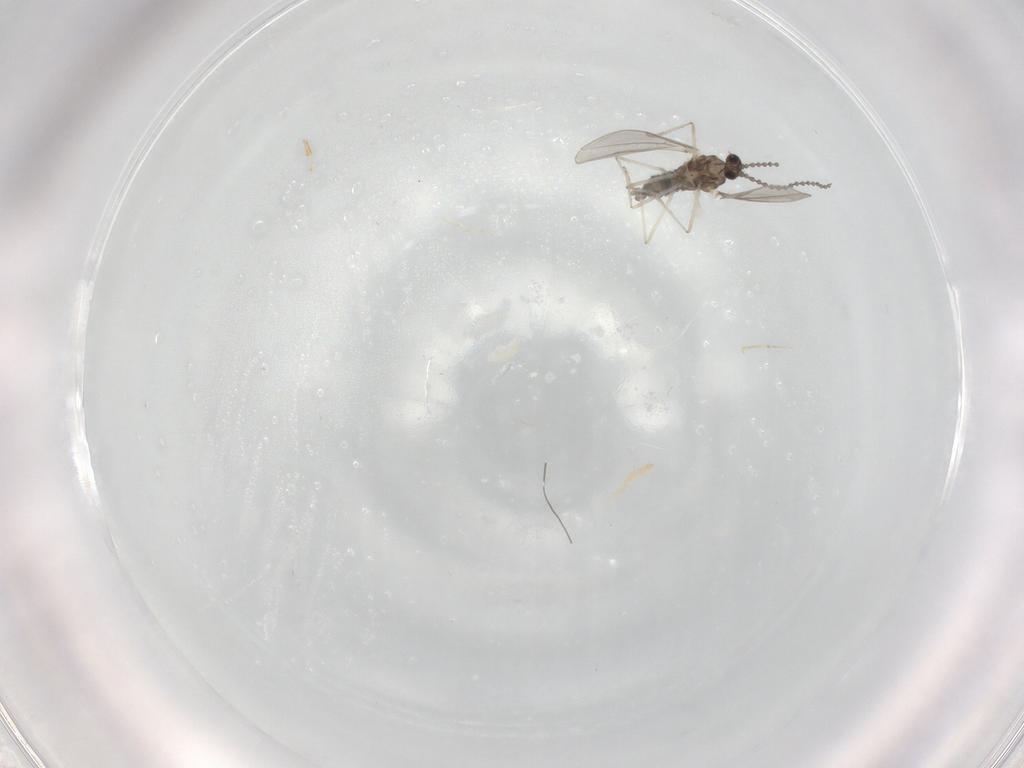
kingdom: Animalia
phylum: Arthropoda
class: Insecta
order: Diptera
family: Cecidomyiidae
